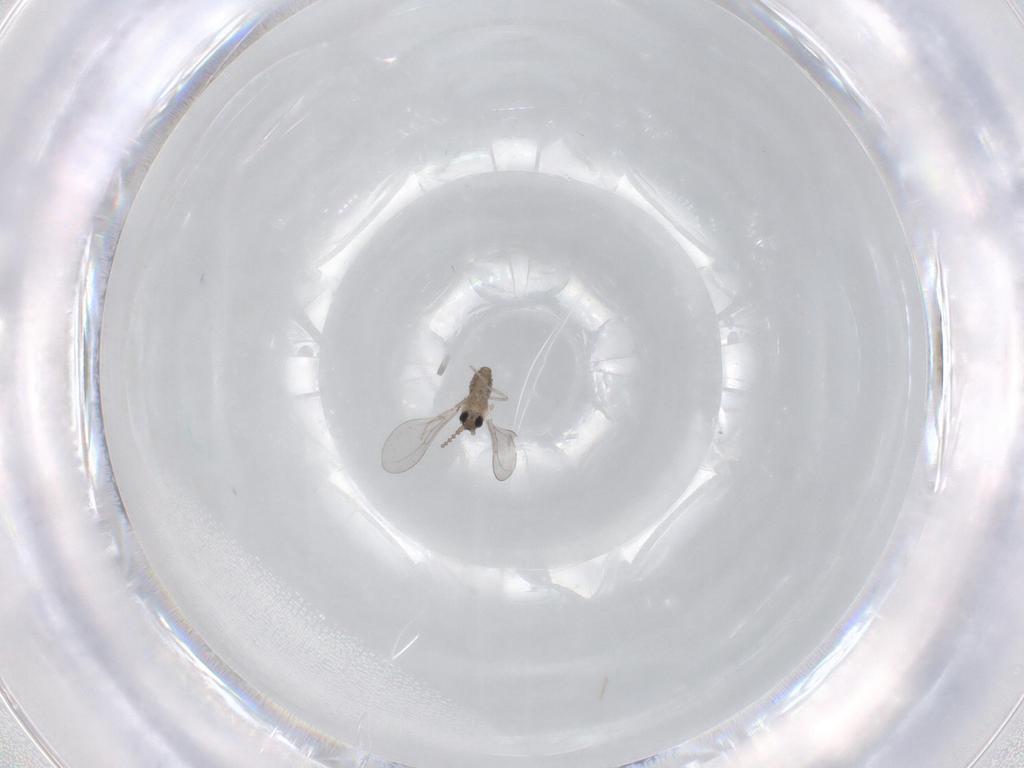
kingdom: Animalia
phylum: Arthropoda
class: Insecta
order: Diptera
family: Cecidomyiidae
